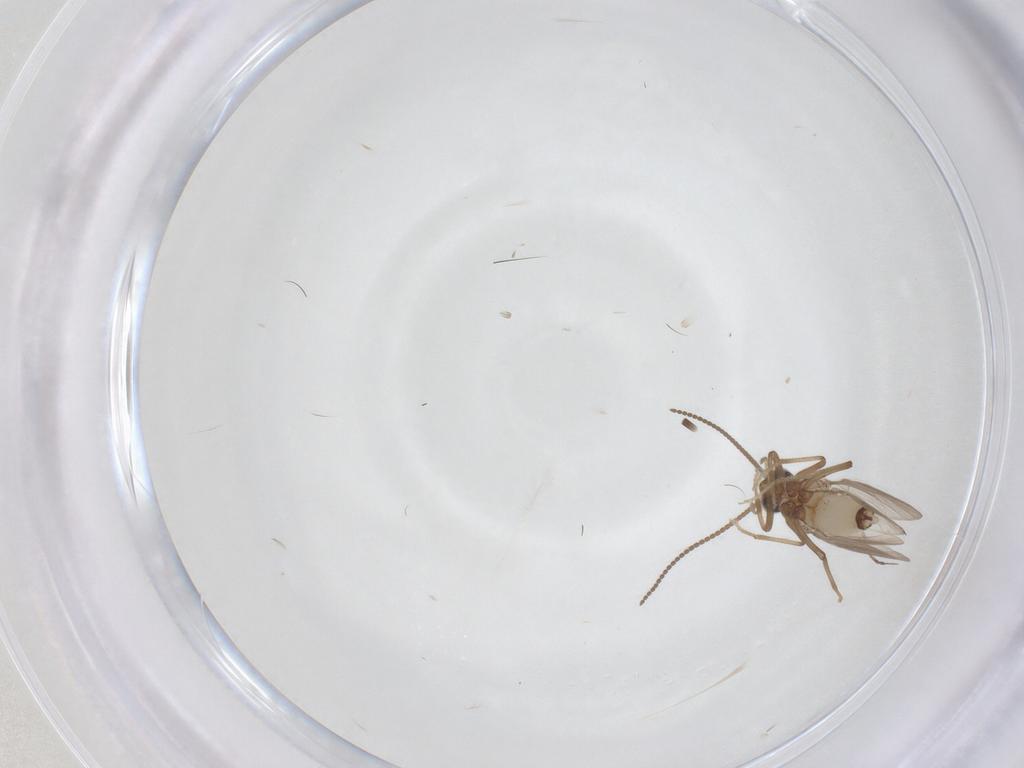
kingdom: Animalia
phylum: Arthropoda
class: Insecta
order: Neuroptera
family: Coniopterygidae
